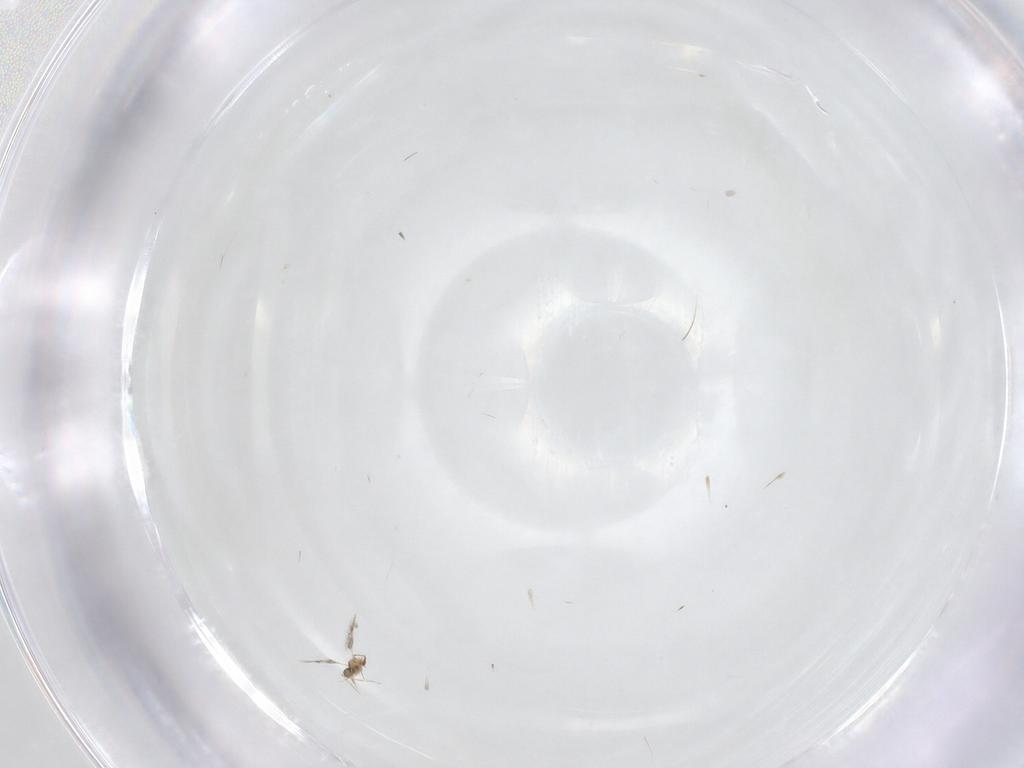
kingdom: Animalia
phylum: Arthropoda
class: Insecta
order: Hymenoptera
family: Mymarommatidae
